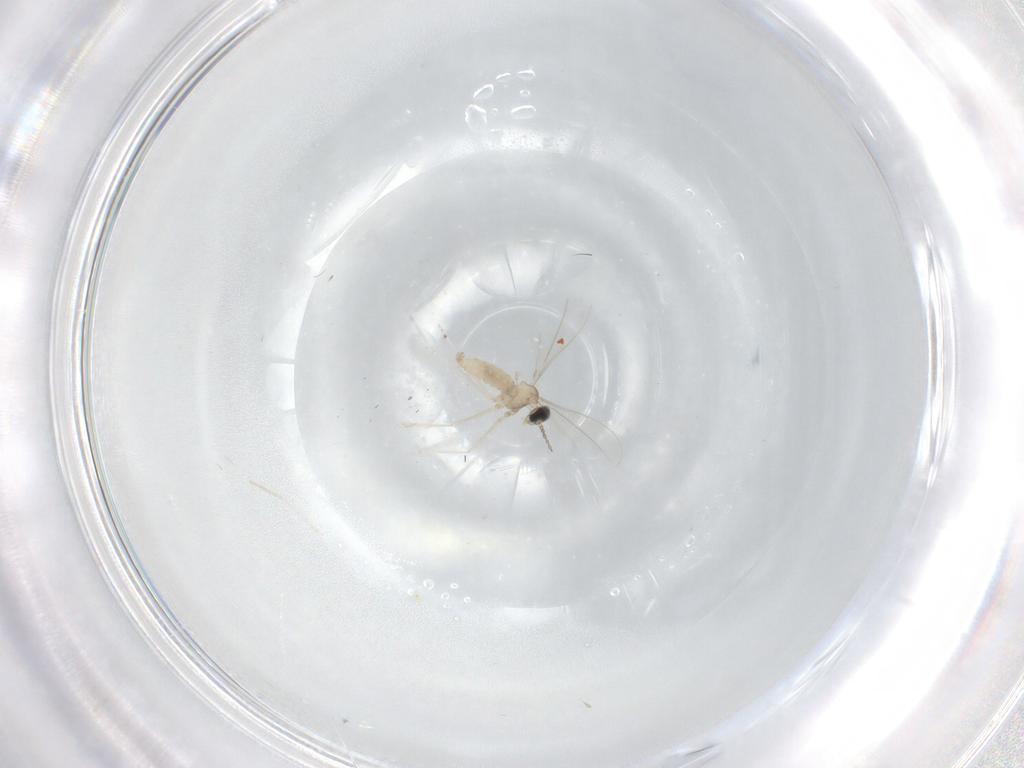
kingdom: Animalia
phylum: Arthropoda
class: Insecta
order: Diptera
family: Cecidomyiidae
